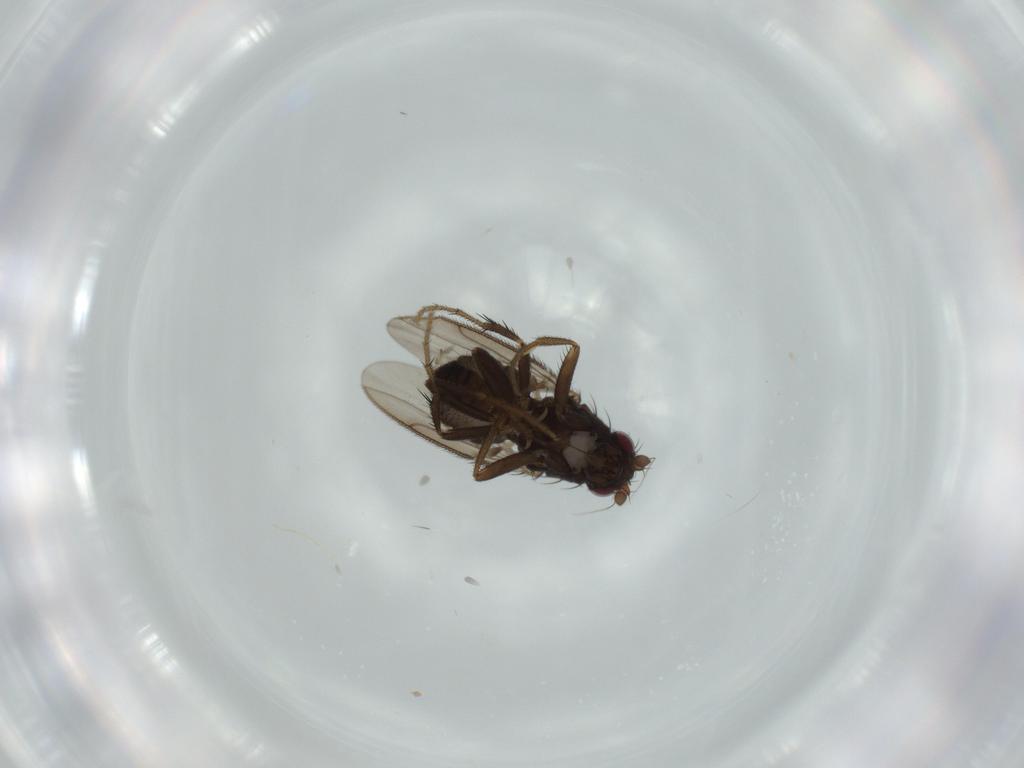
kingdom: Animalia
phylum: Arthropoda
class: Insecta
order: Diptera
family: Sphaeroceridae
